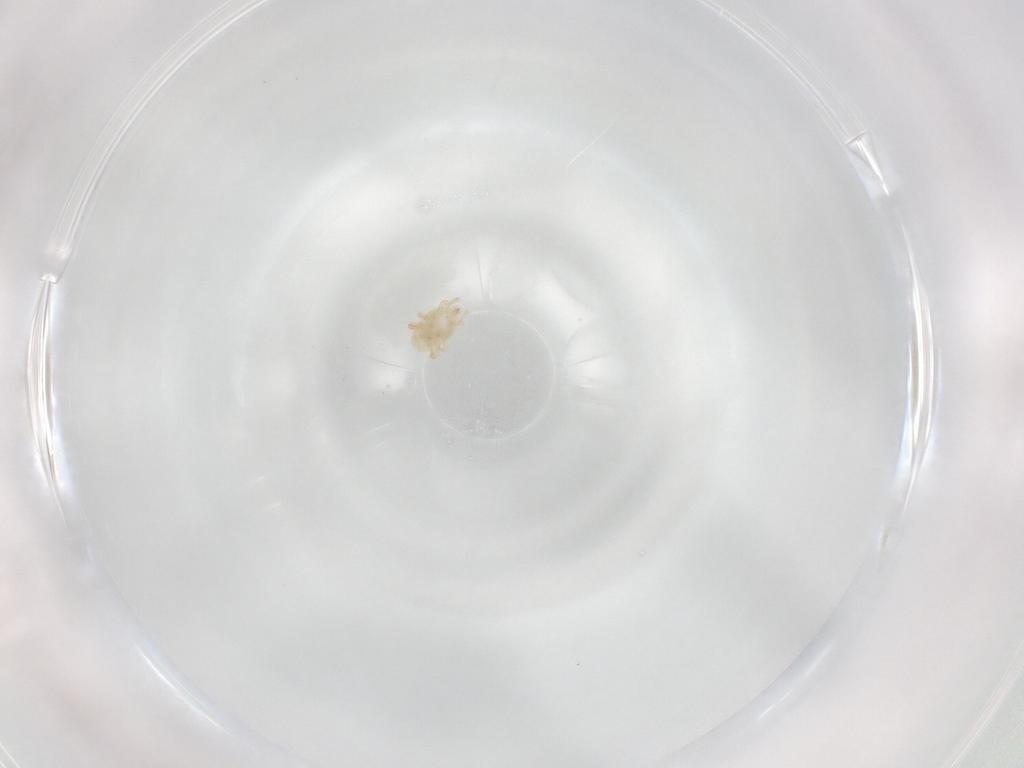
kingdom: Animalia
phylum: Arthropoda
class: Arachnida
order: Mesostigmata
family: Halolaelapidae
